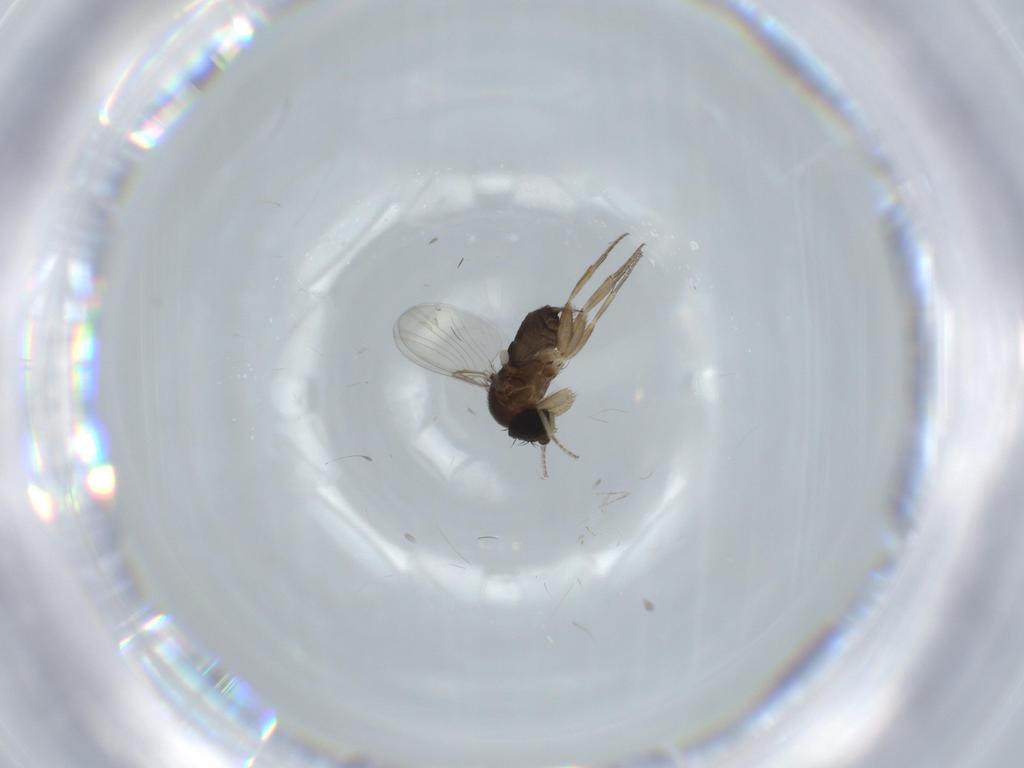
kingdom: Animalia
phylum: Arthropoda
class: Insecta
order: Diptera
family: Phoridae
